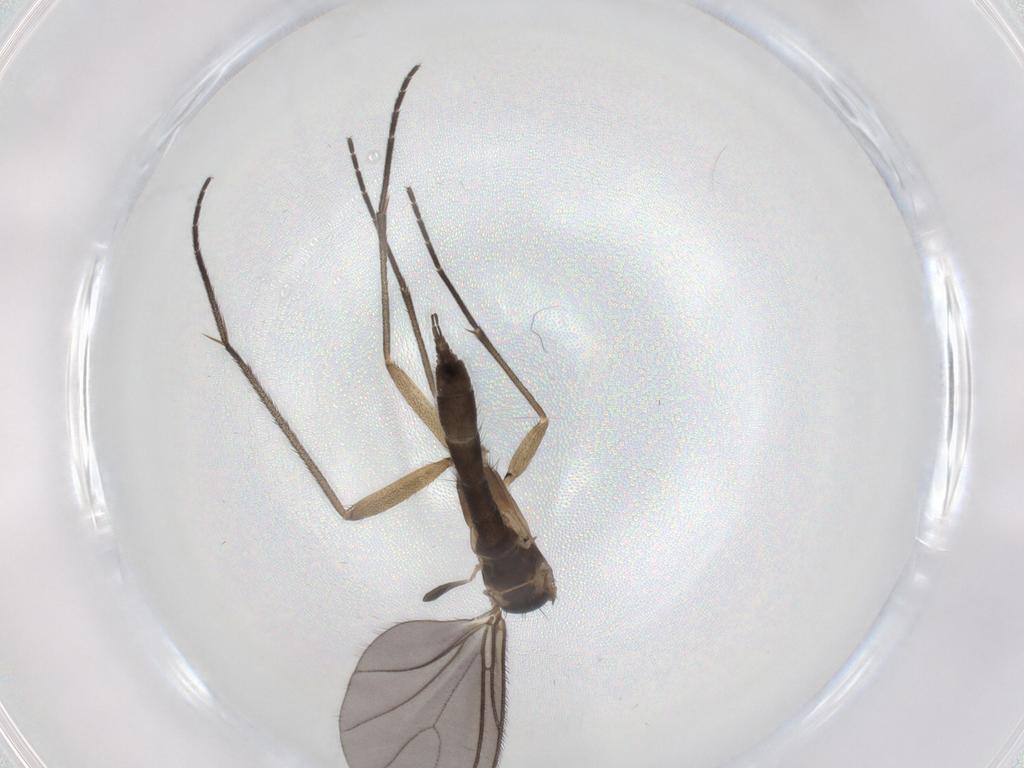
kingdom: Animalia
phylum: Arthropoda
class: Insecta
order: Diptera
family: Sciaridae
